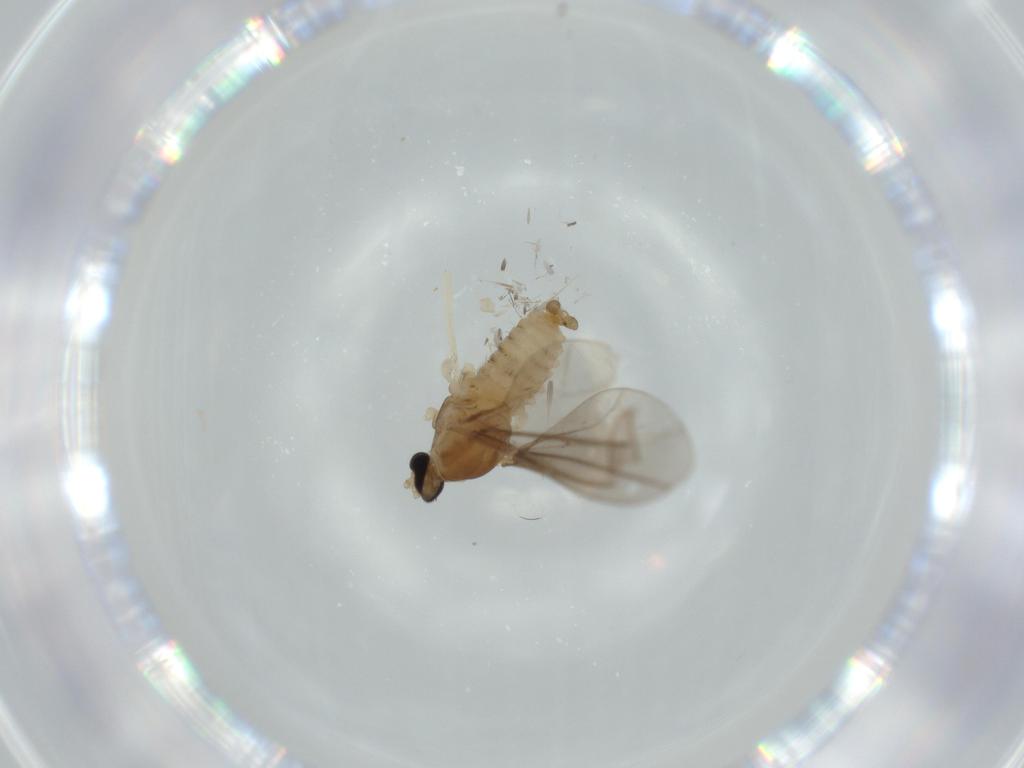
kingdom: Animalia
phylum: Arthropoda
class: Insecta
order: Diptera
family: Cecidomyiidae
